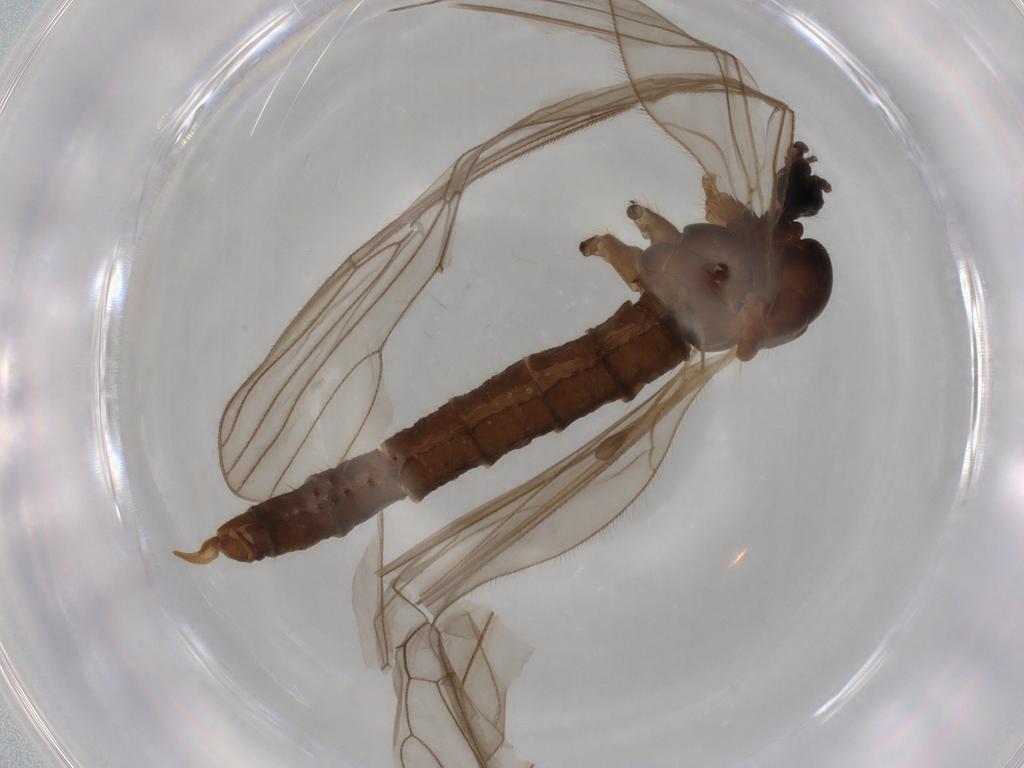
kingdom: Animalia
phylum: Arthropoda
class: Insecta
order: Diptera
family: Trichoceridae
